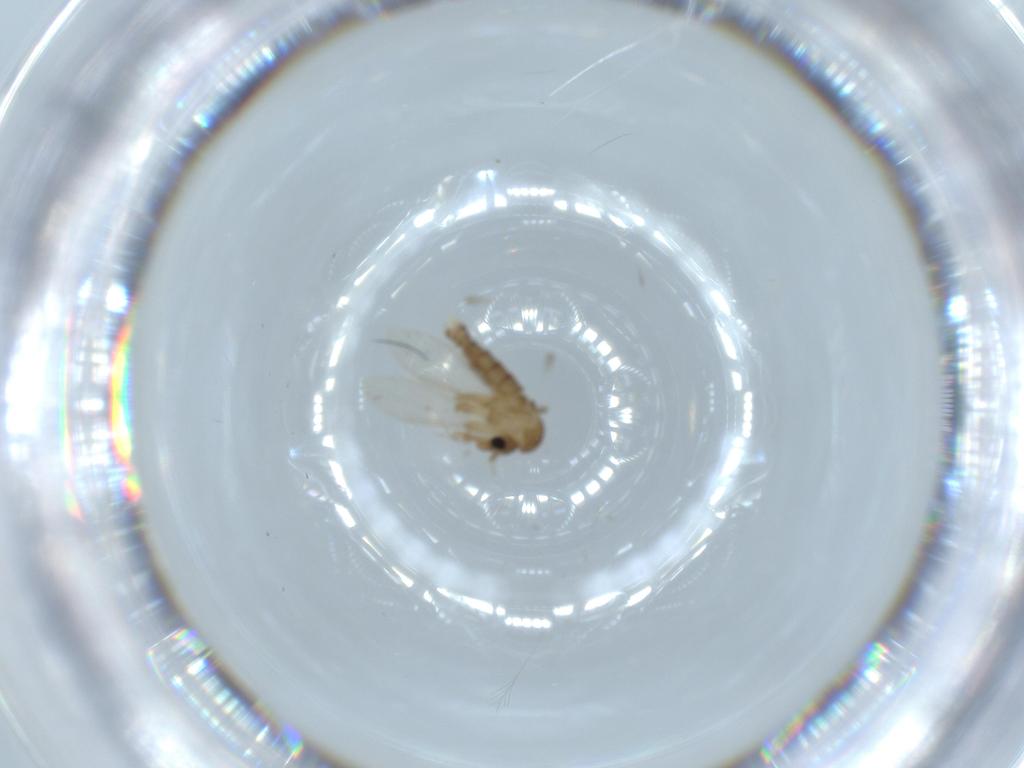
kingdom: Animalia
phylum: Arthropoda
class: Insecta
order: Diptera
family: Psychodidae
